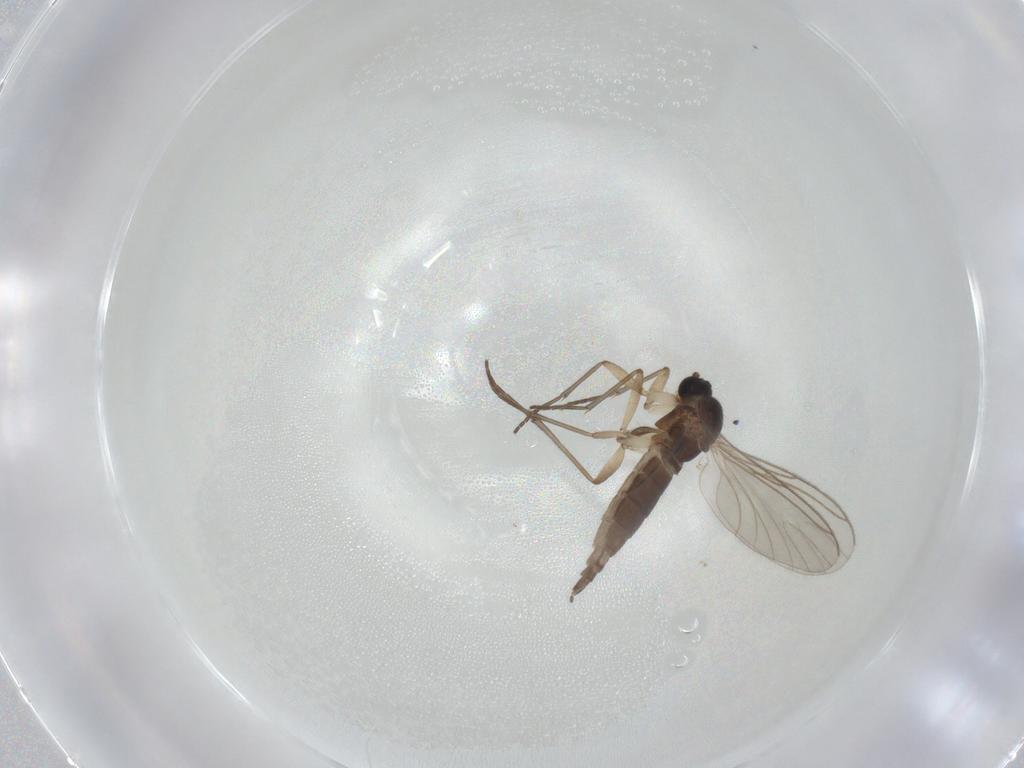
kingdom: Animalia
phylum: Arthropoda
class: Insecta
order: Diptera
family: Sciaridae
